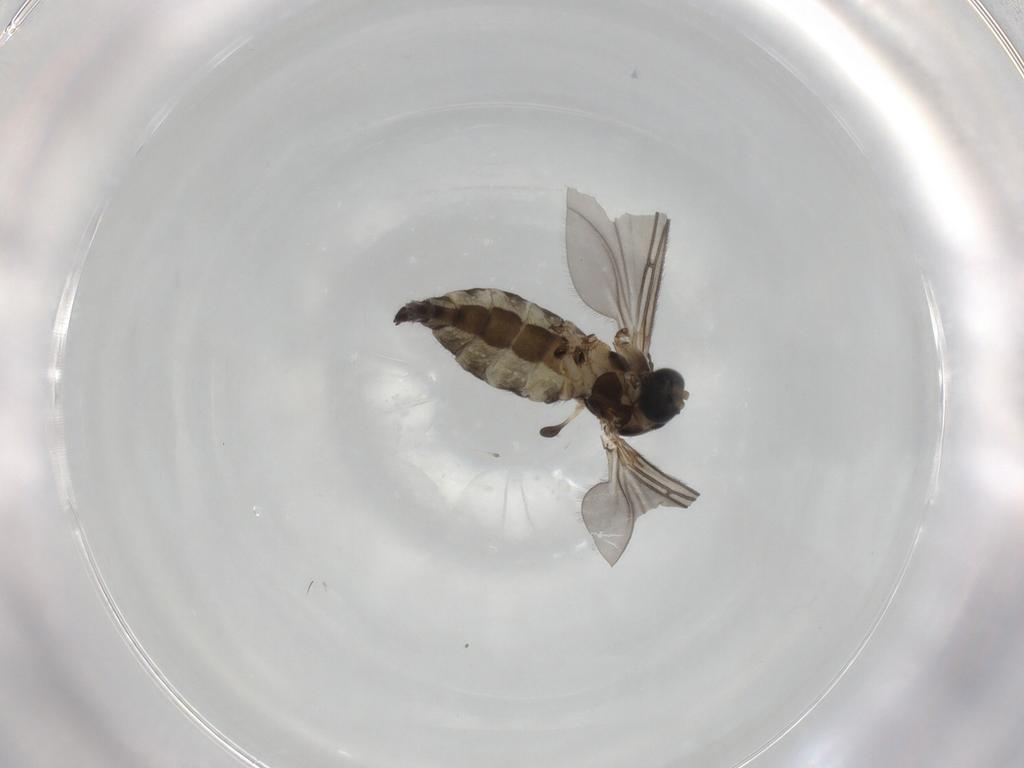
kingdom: Animalia
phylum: Arthropoda
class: Insecta
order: Diptera
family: Sciaridae
